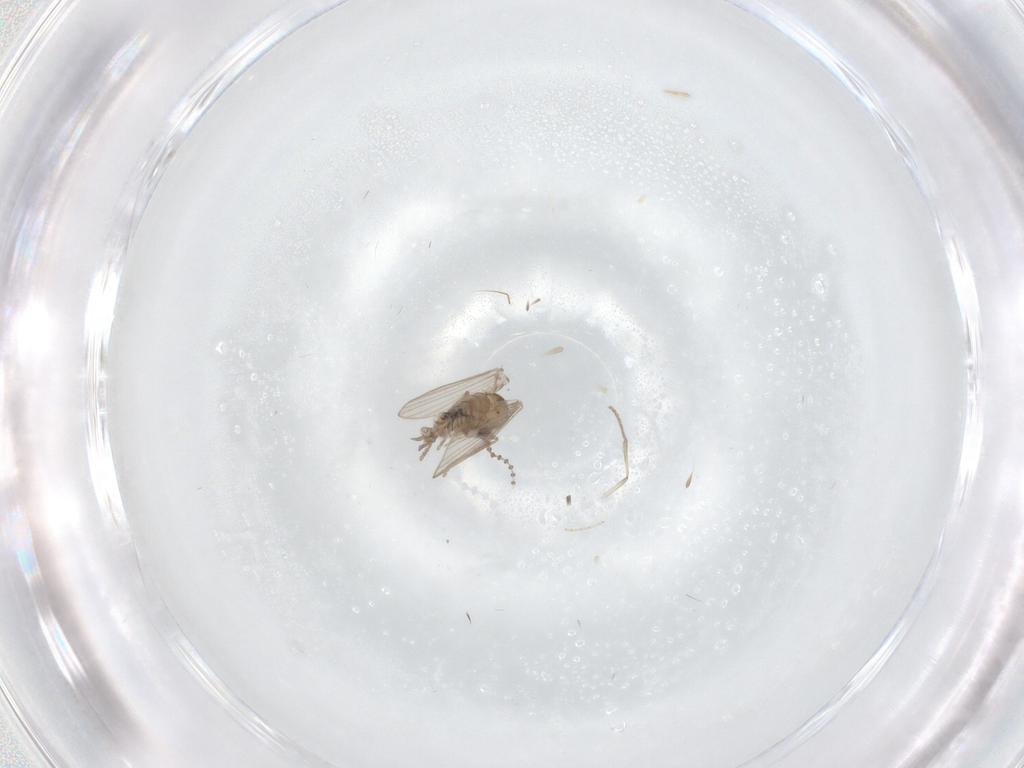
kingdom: Animalia
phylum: Arthropoda
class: Insecta
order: Diptera
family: Psychodidae
